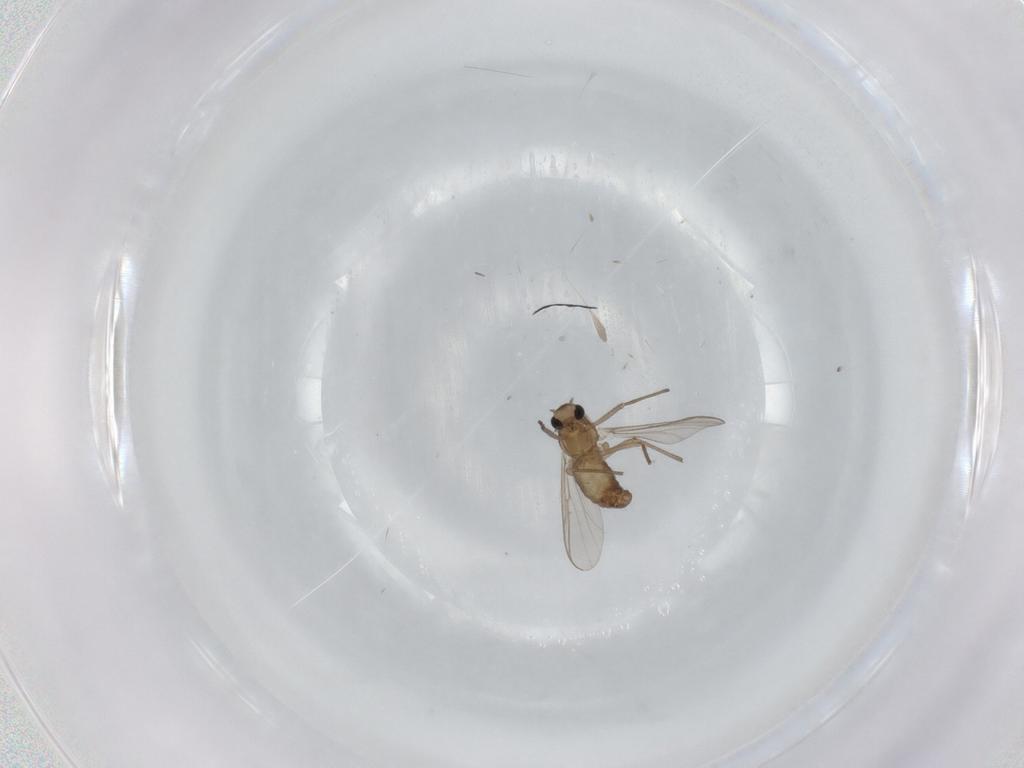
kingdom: Animalia
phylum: Arthropoda
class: Insecta
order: Diptera
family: Chironomidae
